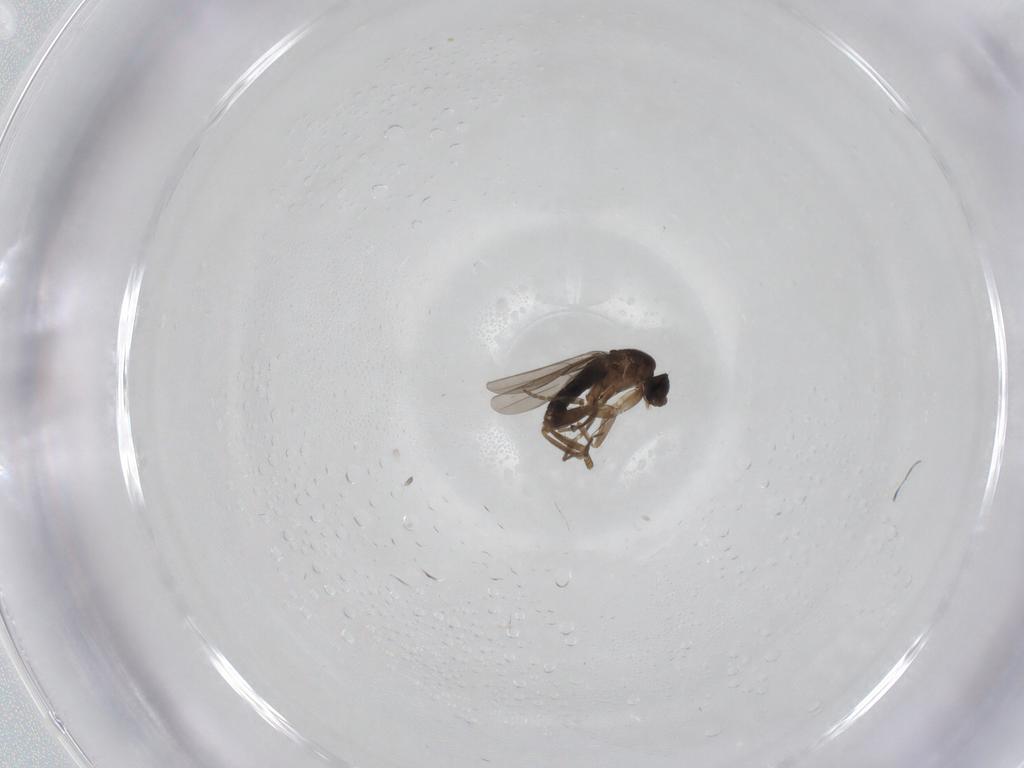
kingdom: Animalia
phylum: Arthropoda
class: Insecta
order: Diptera
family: Phoridae
